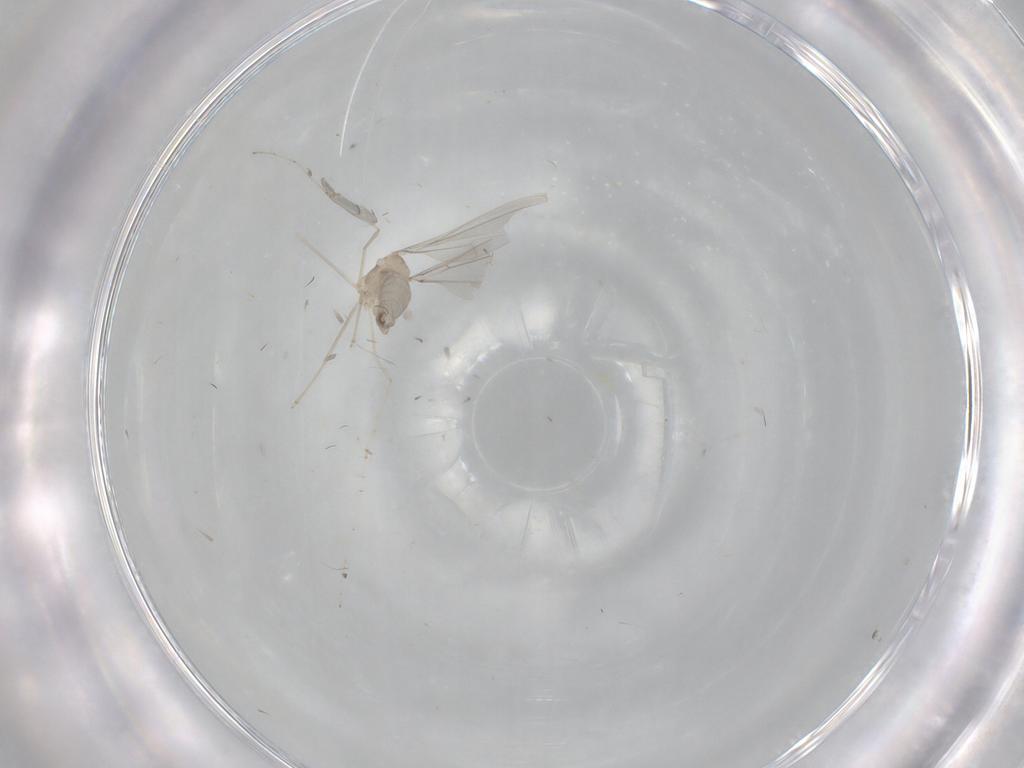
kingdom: Animalia
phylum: Arthropoda
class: Insecta
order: Diptera
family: Cecidomyiidae
